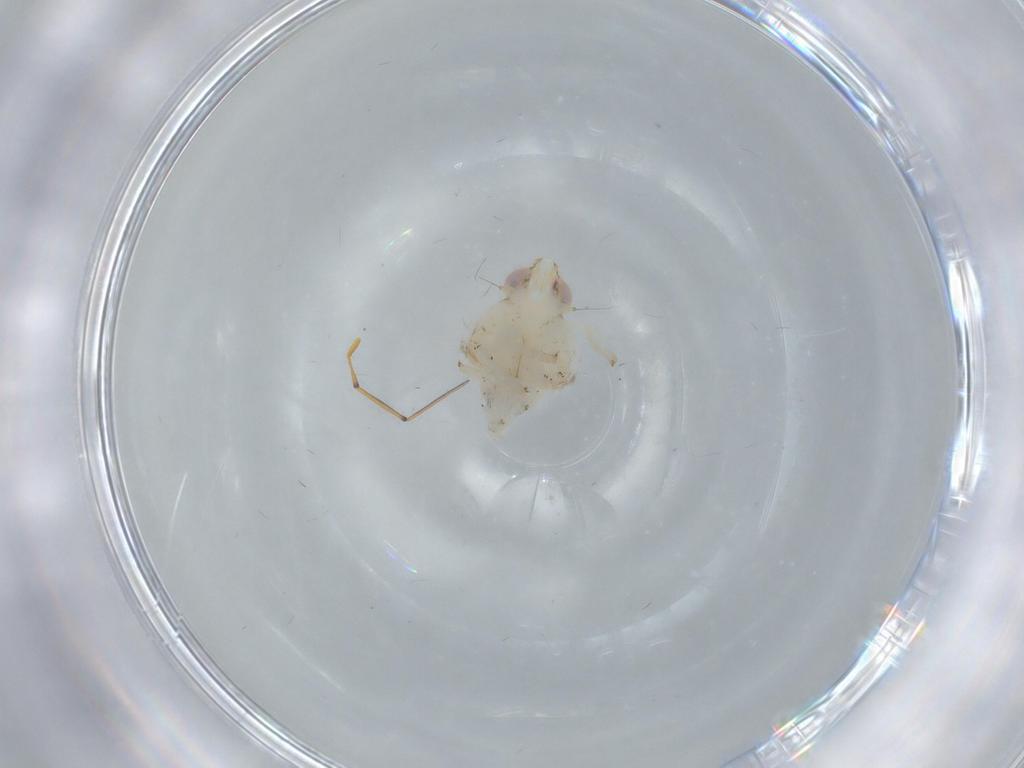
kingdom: Animalia
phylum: Arthropoda
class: Insecta
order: Hemiptera
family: Nogodinidae
